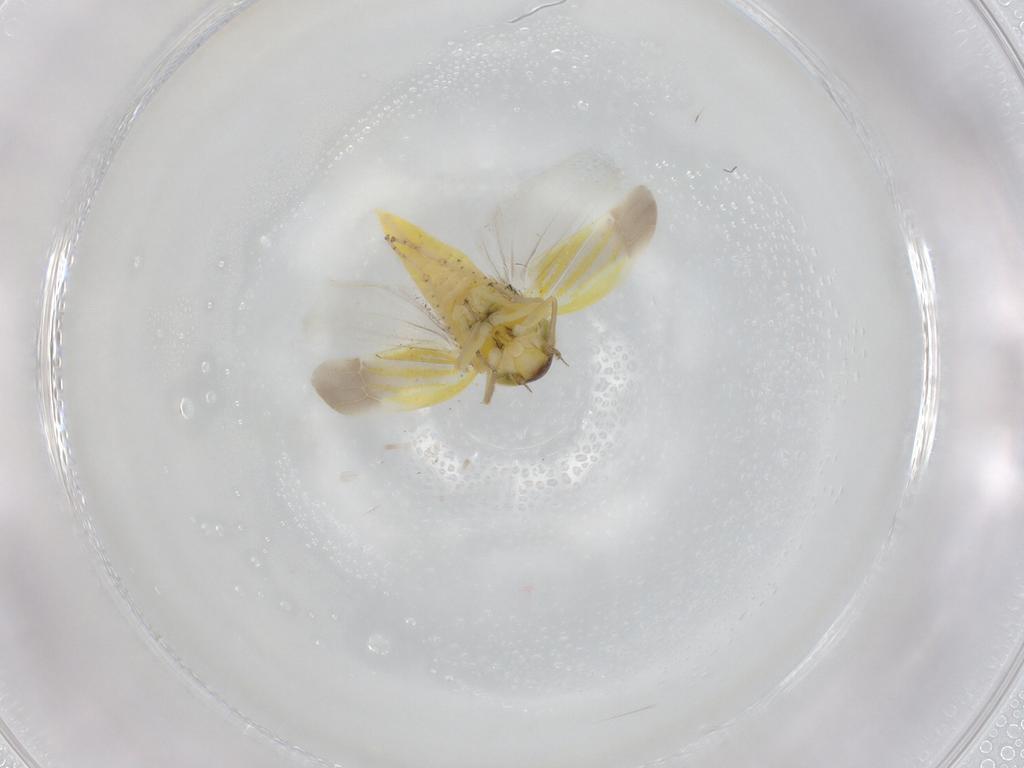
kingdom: Animalia
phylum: Arthropoda
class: Insecta
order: Hemiptera
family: Cicadellidae
